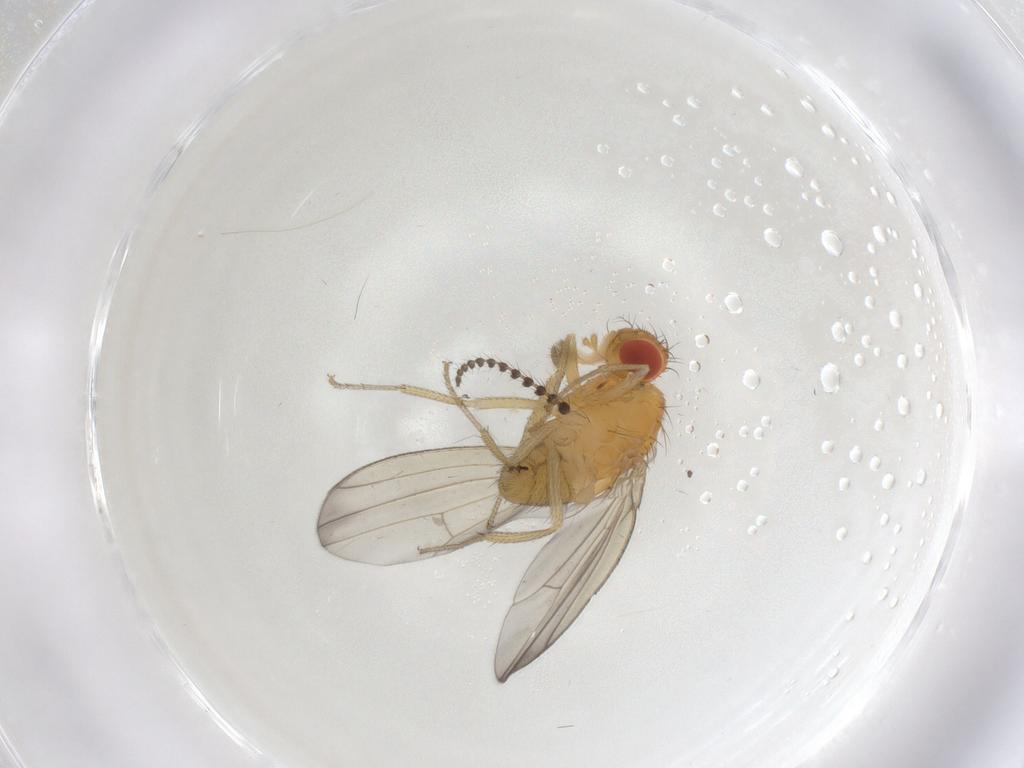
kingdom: Animalia
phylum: Arthropoda
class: Insecta
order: Diptera
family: Drosophilidae
